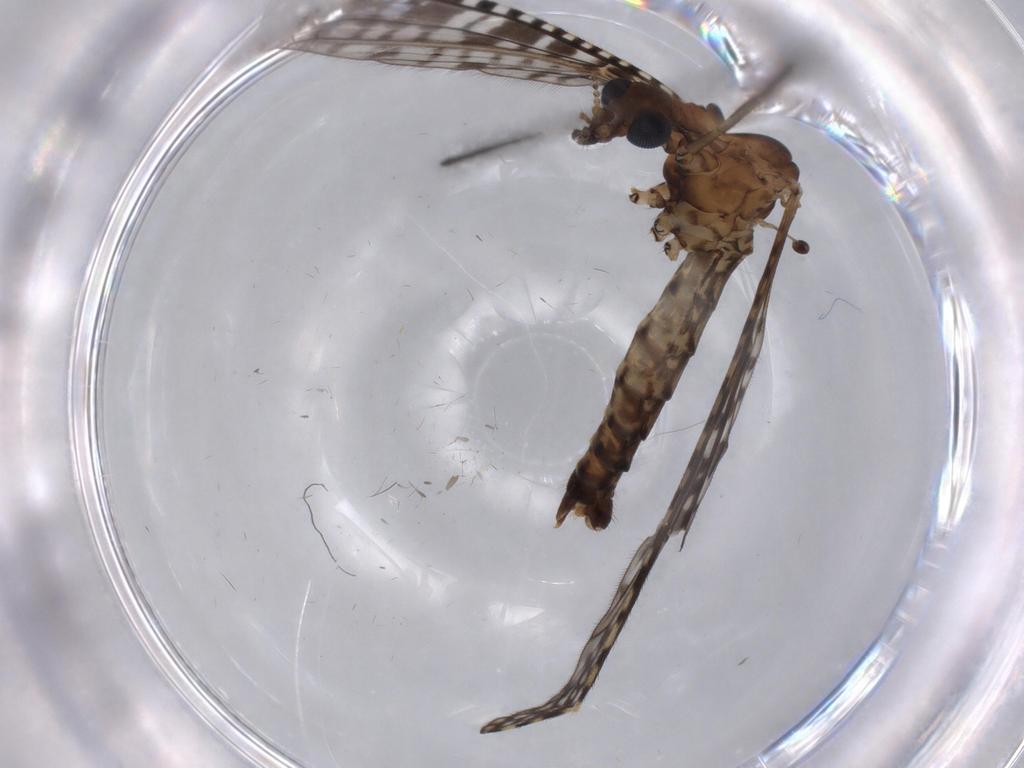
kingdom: Animalia
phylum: Arthropoda
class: Insecta
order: Diptera
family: Limoniidae
